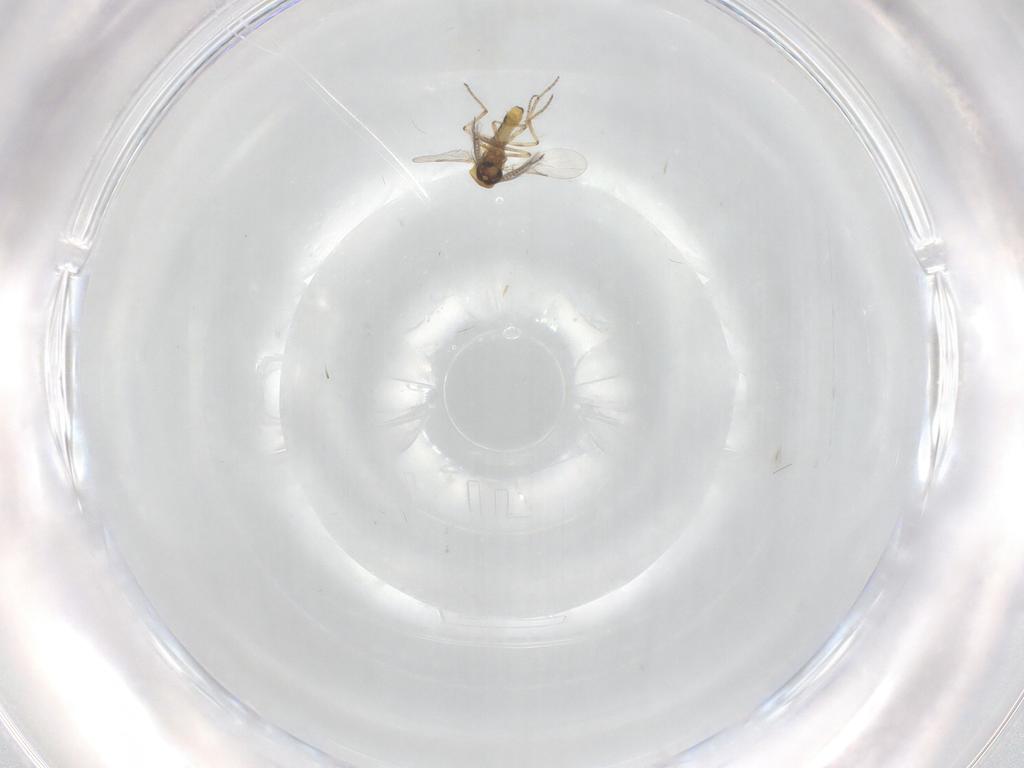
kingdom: Animalia
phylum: Arthropoda
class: Insecta
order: Diptera
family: Ceratopogonidae
